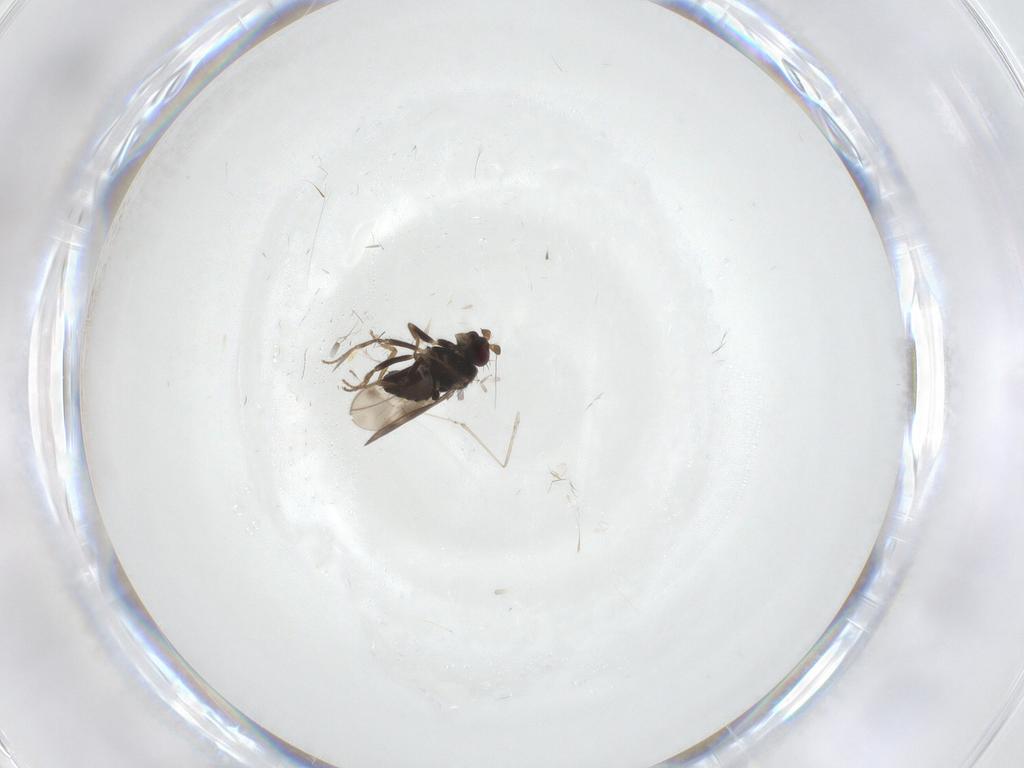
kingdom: Animalia
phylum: Arthropoda
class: Insecta
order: Diptera
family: Sphaeroceridae
